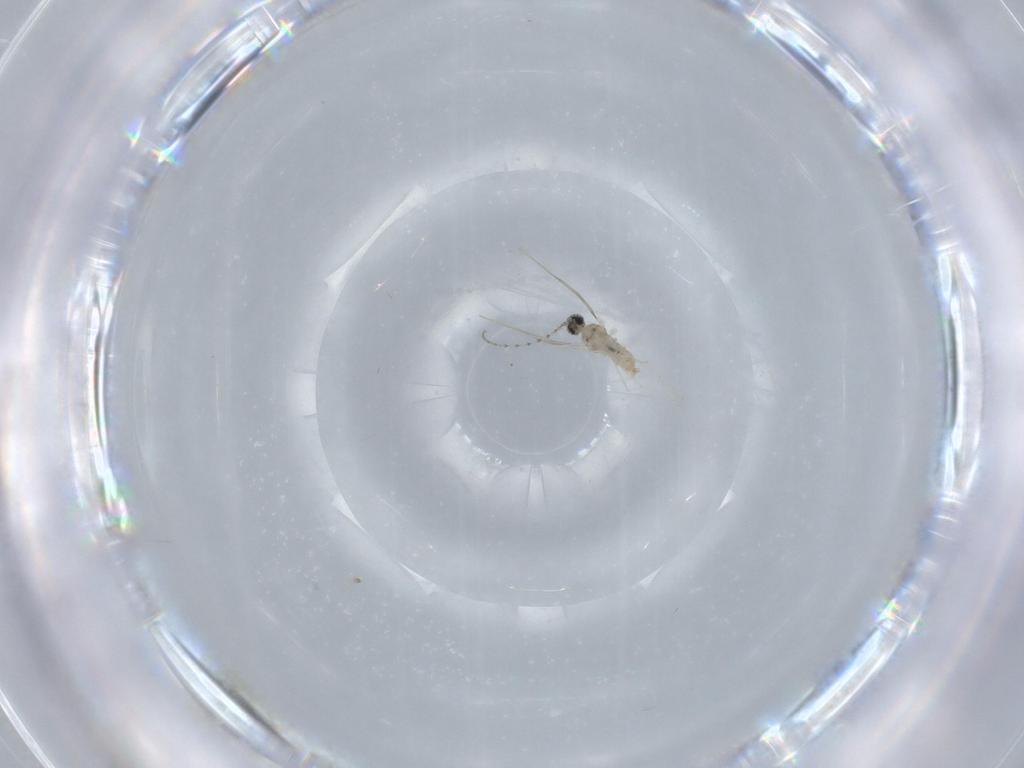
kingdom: Animalia
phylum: Arthropoda
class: Insecta
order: Diptera
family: Cecidomyiidae
